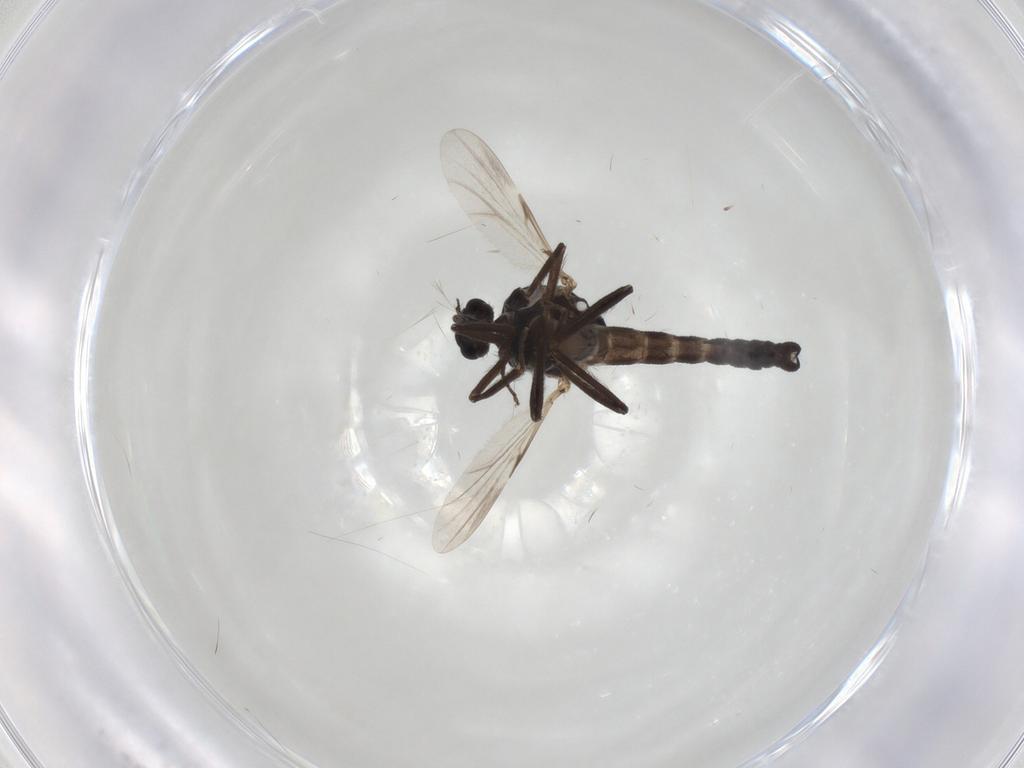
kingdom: Animalia
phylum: Arthropoda
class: Insecta
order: Diptera
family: Ceratopogonidae
